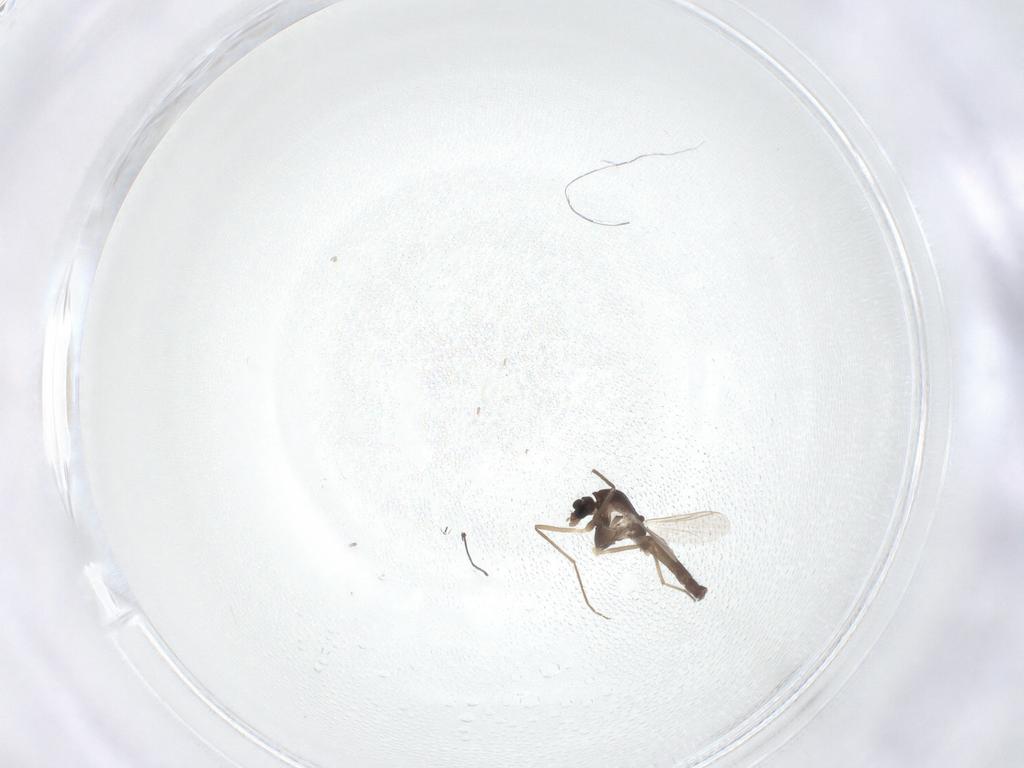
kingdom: Animalia
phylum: Arthropoda
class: Insecta
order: Diptera
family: Chironomidae
